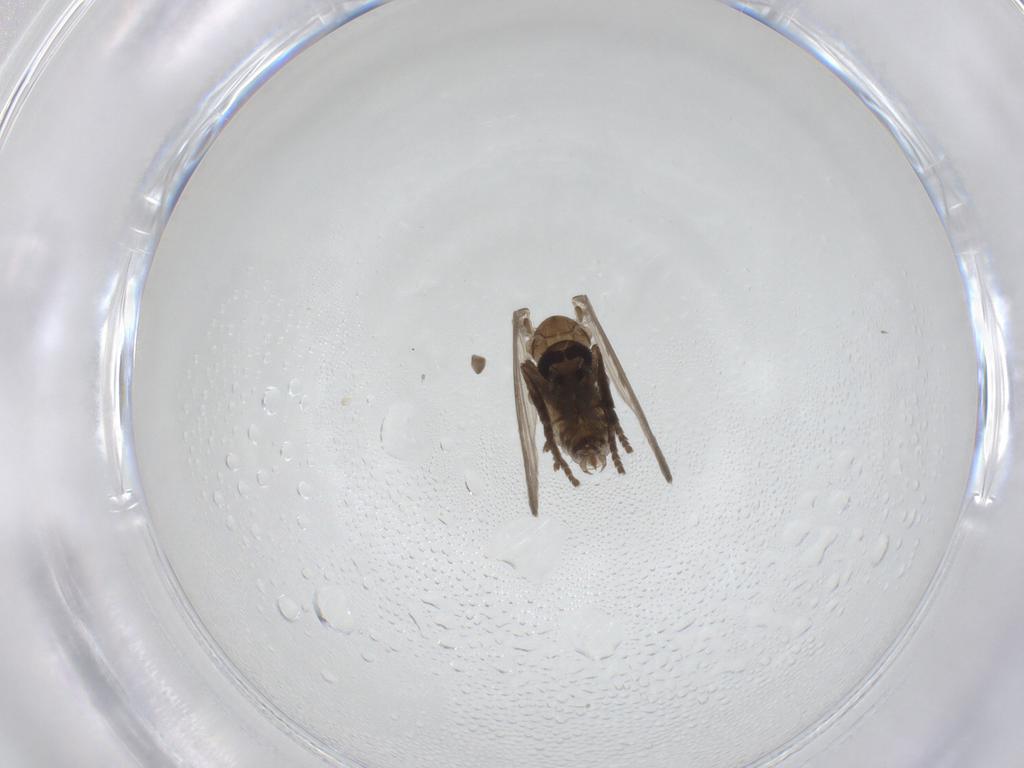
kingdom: Animalia
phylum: Arthropoda
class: Insecta
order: Diptera
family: Psychodidae
